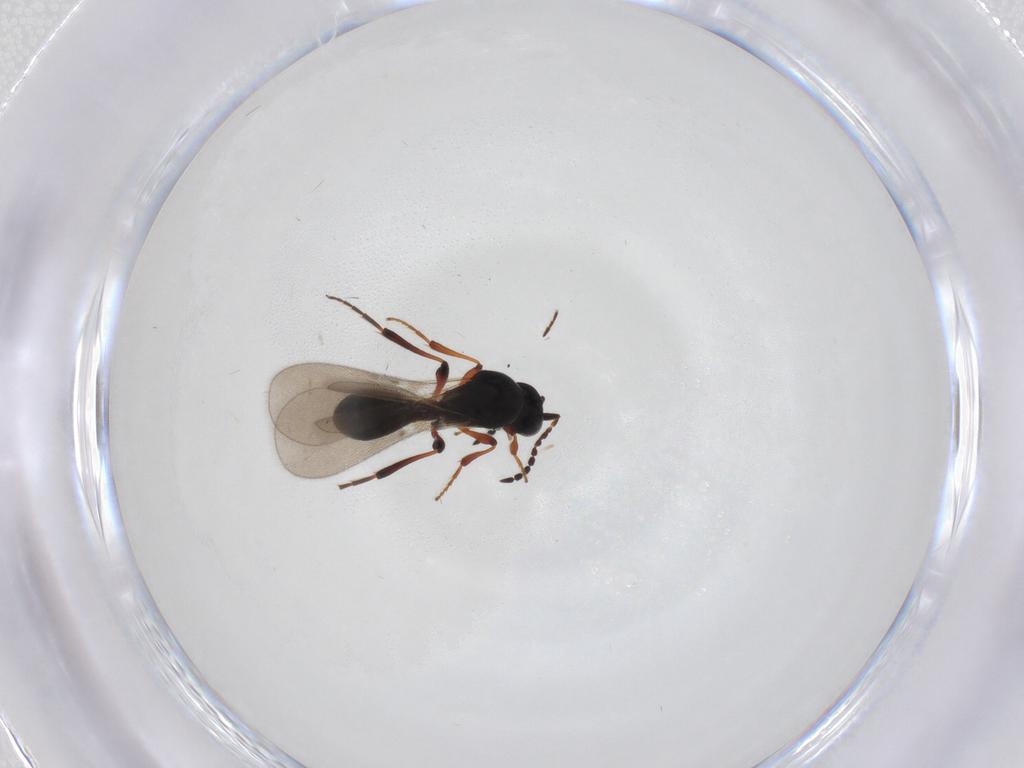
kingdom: Animalia
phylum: Arthropoda
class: Insecta
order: Hymenoptera
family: Platygastridae
